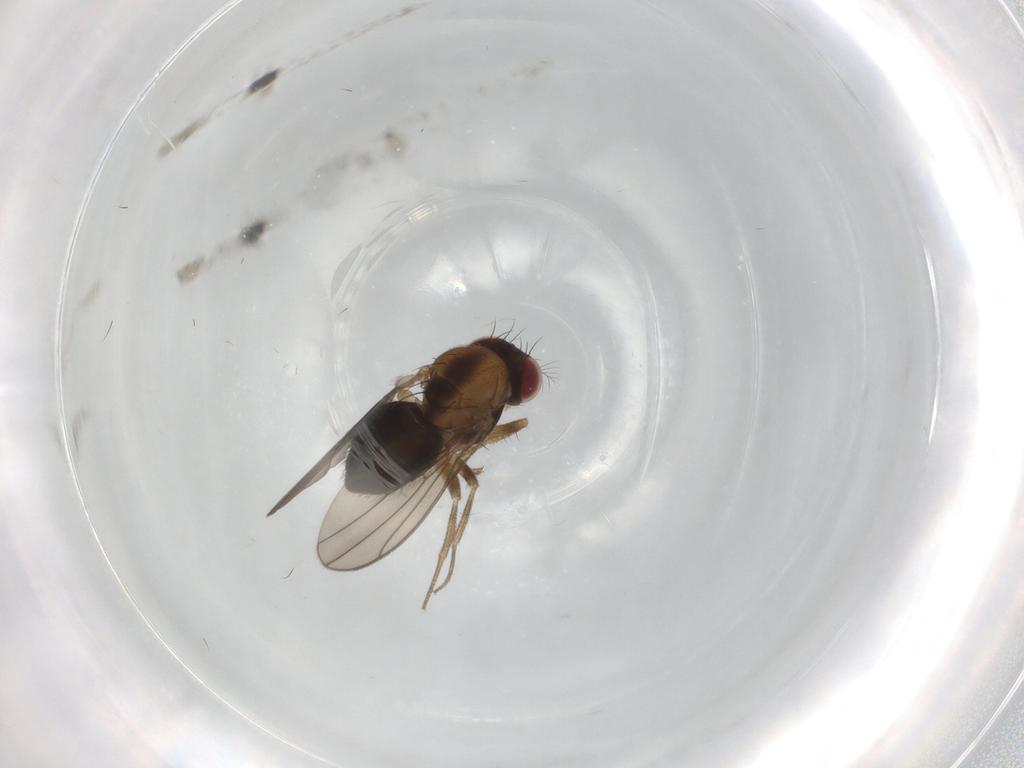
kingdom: Animalia
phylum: Arthropoda
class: Insecta
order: Diptera
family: Drosophilidae
